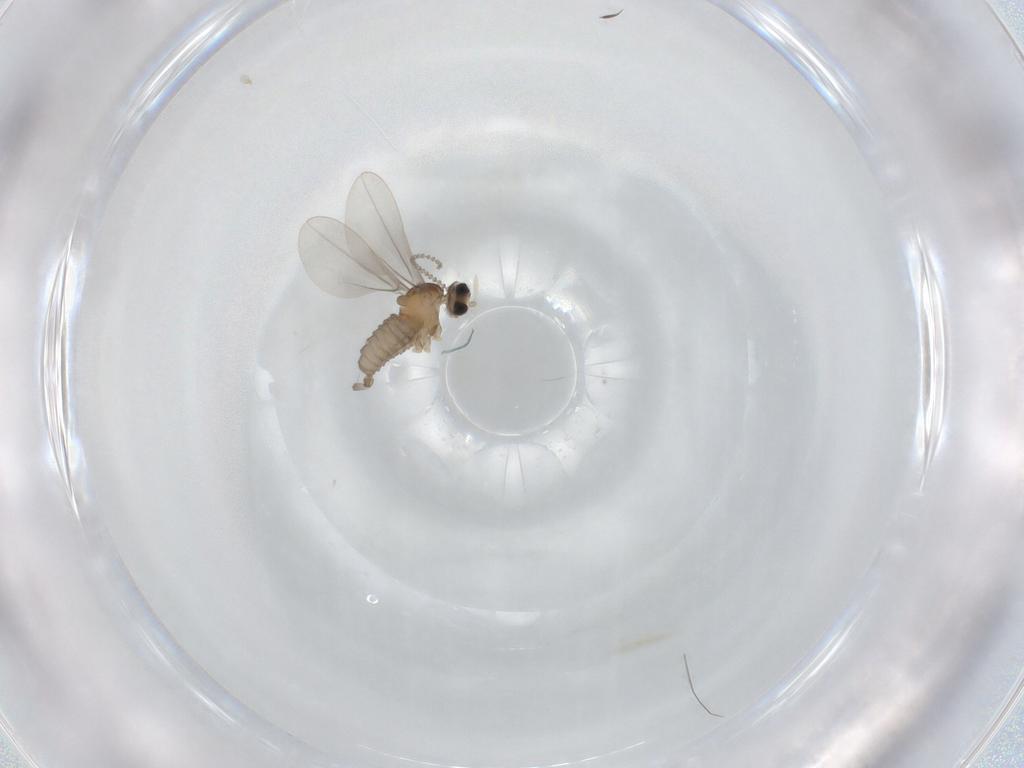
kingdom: Animalia
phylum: Arthropoda
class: Insecta
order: Diptera
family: Cecidomyiidae
